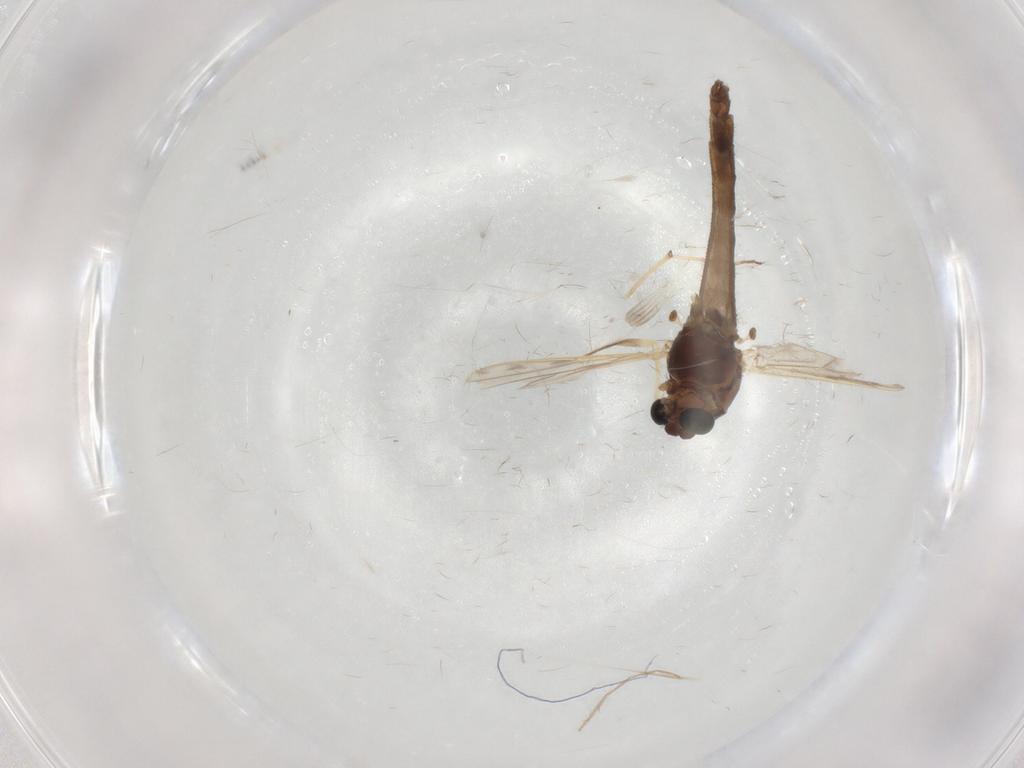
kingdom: Animalia
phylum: Arthropoda
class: Insecta
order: Diptera
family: Chironomidae
